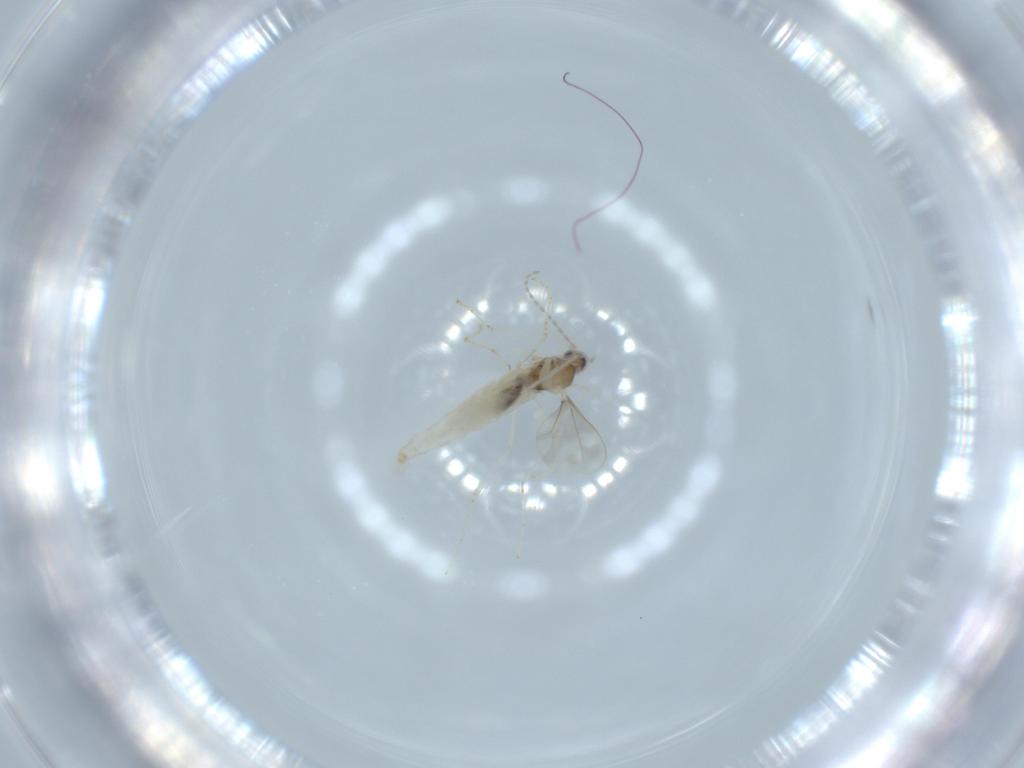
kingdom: Animalia
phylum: Arthropoda
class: Insecta
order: Diptera
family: Cecidomyiidae
